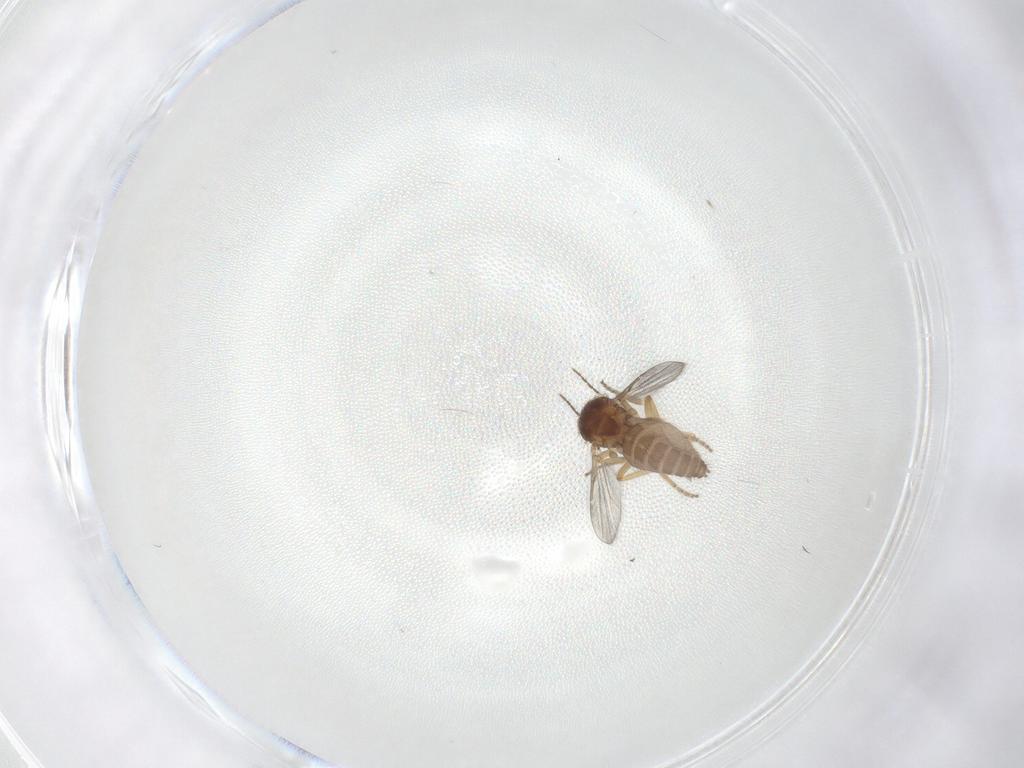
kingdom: Animalia
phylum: Arthropoda
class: Insecta
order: Diptera
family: Ceratopogonidae
